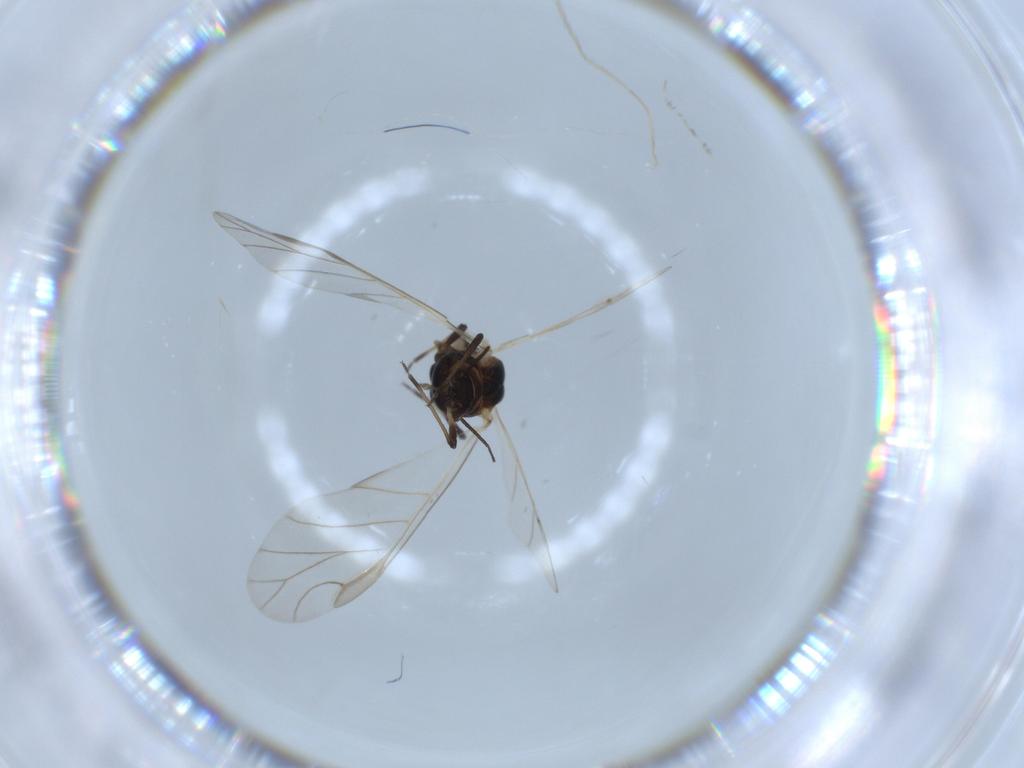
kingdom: Animalia
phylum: Arthropoda
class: Insecta
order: Hemiptera
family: Aphididae
